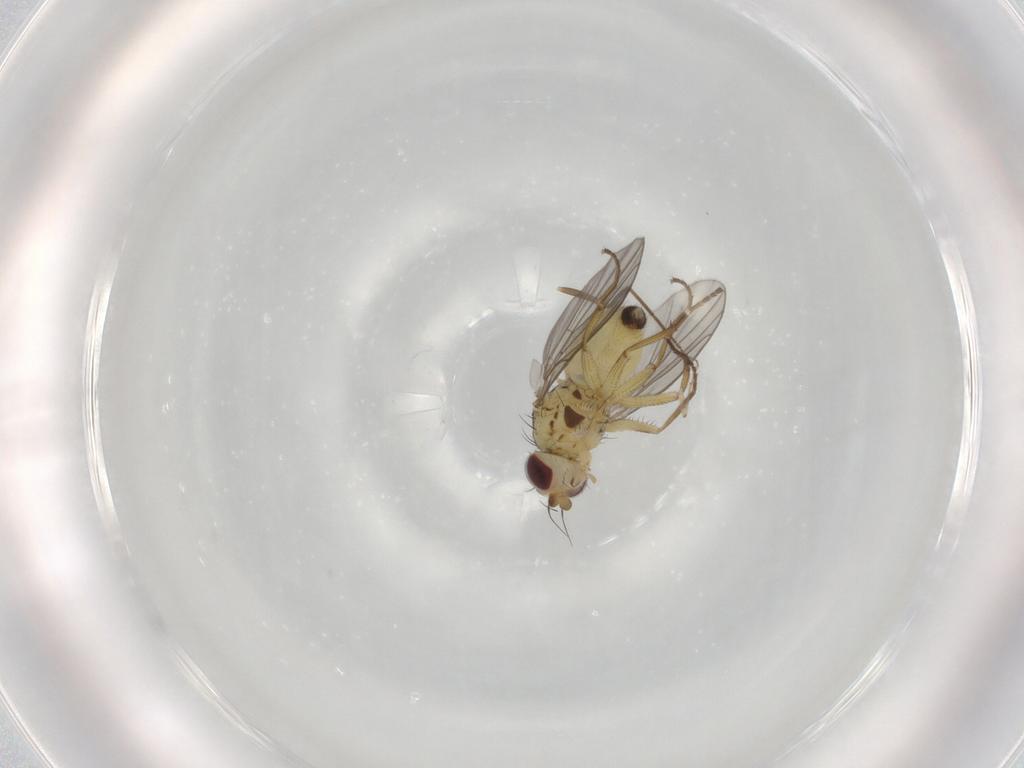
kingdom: Animalia
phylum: Arthropoda
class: Insecta
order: Diptera
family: Agromyzidae
